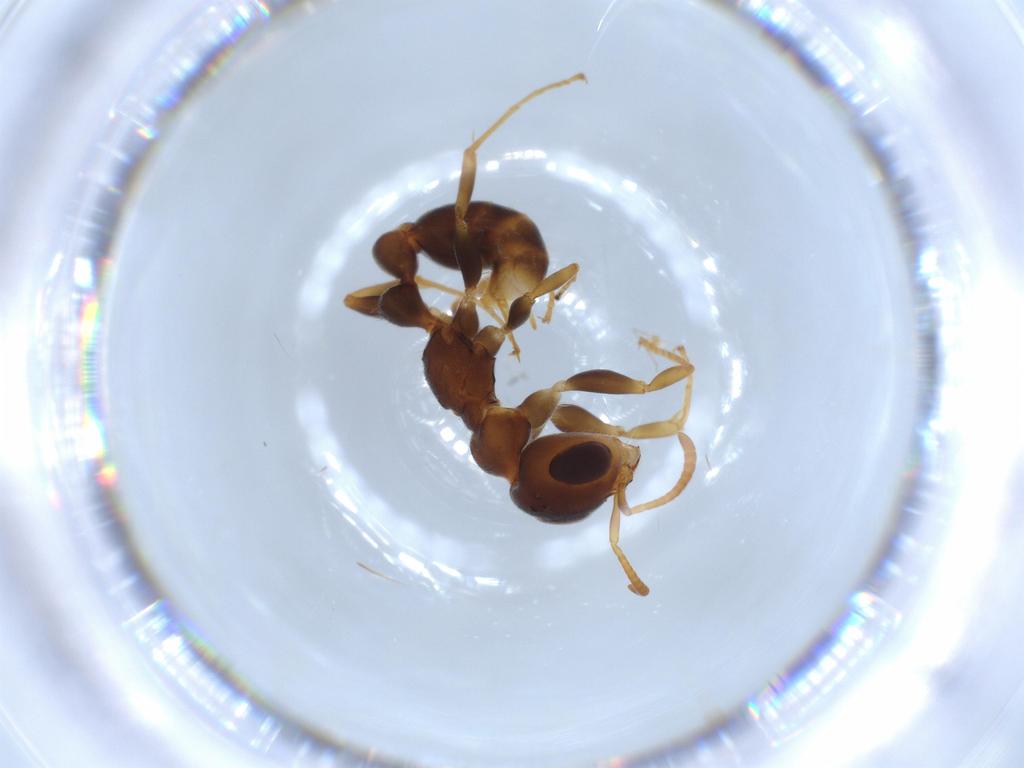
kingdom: Animalia
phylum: Arthropoda
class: Insecta
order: Hymenoptera
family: Formicidae
